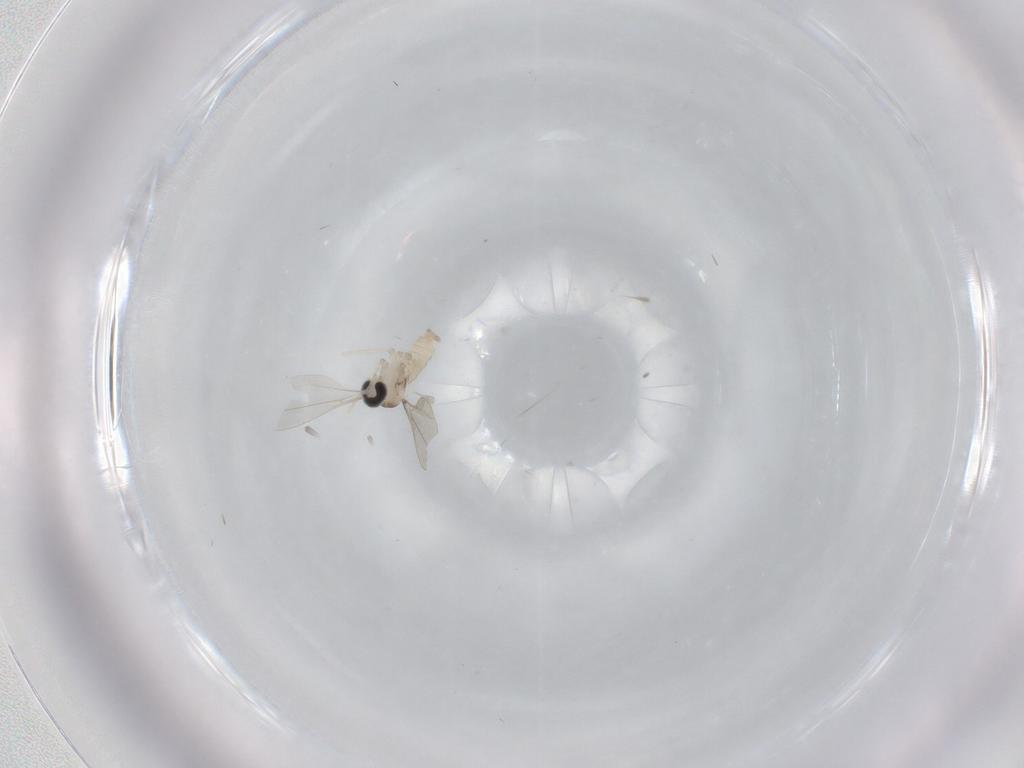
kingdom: Animalia
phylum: Arthropoda
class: Insecta
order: Diptera
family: Cecidomyiidae
